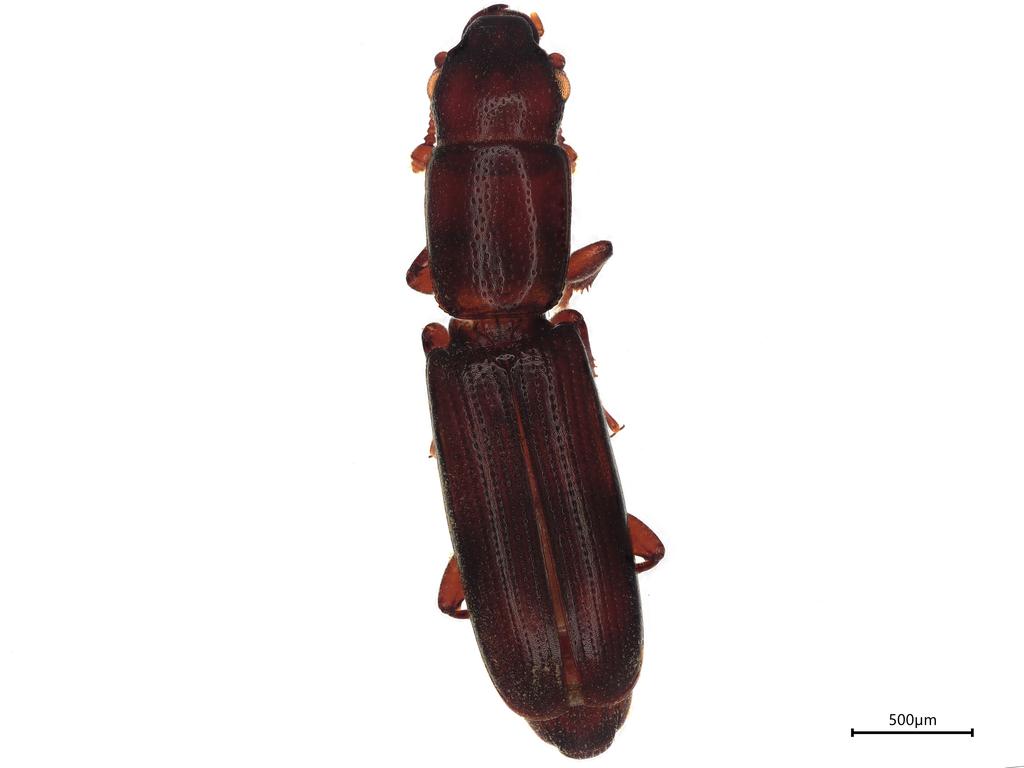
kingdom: Animalia
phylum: Arthropoda
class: Insecta
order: Coleoptera
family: Monotomidae
